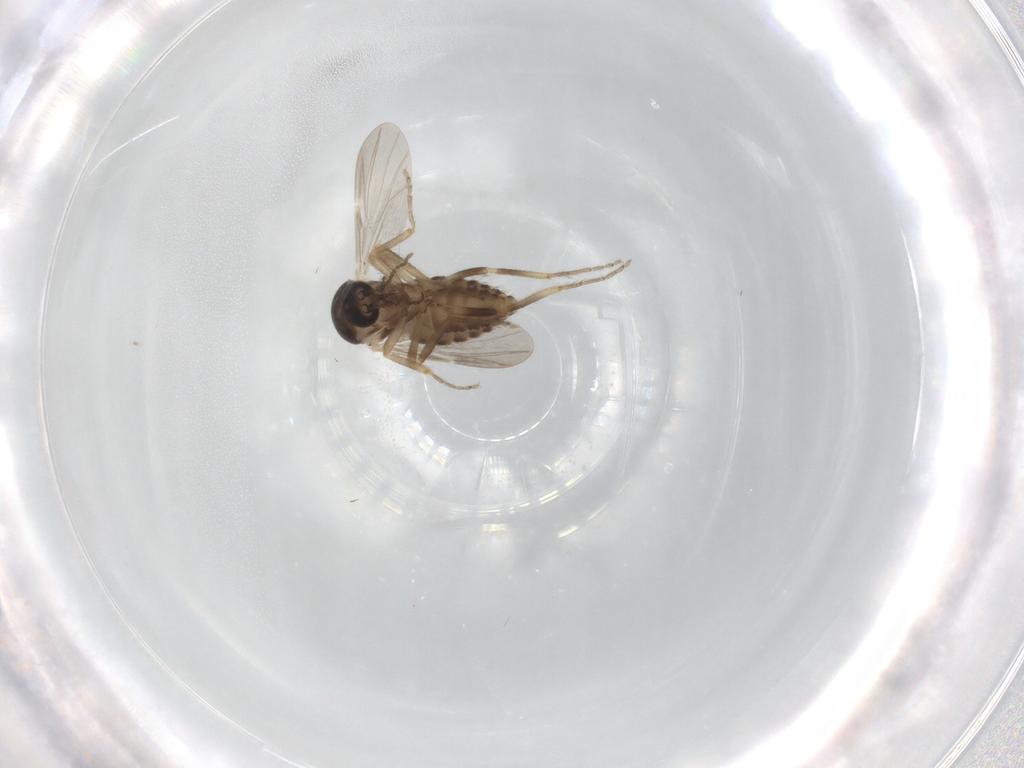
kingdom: Animalia
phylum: Arthropoda
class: Insecta
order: Diptera
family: Ceratopogonidae
